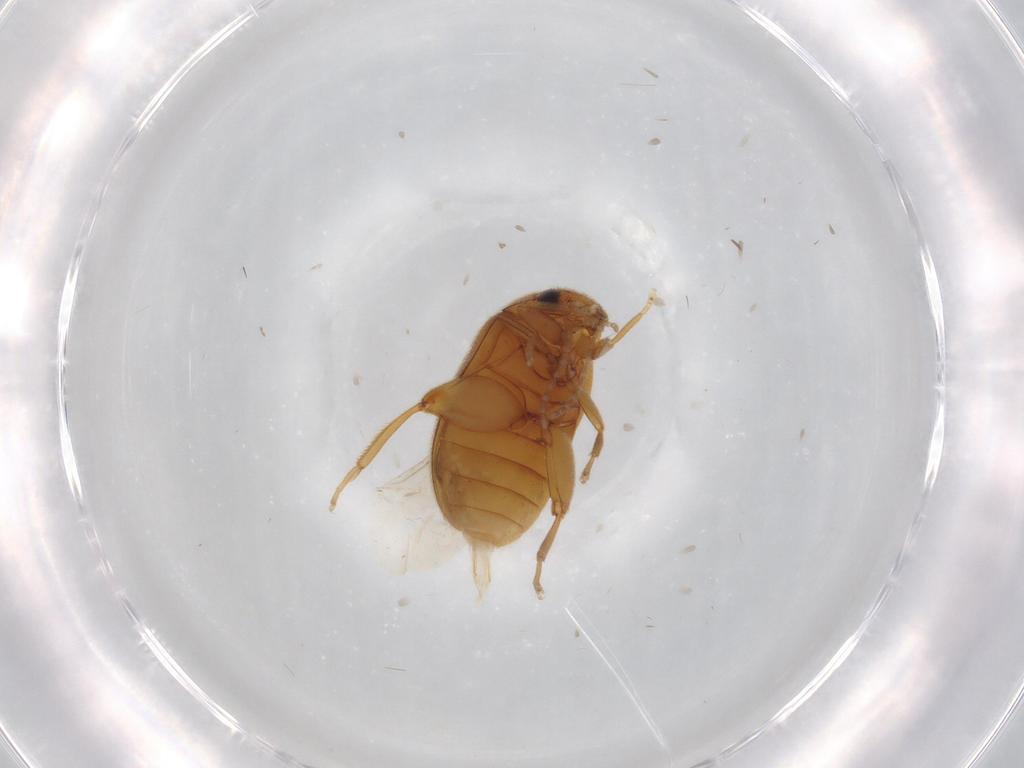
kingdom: Animalia
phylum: Arthropoda
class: Insecta
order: Coleoptera
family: Scirtidae
